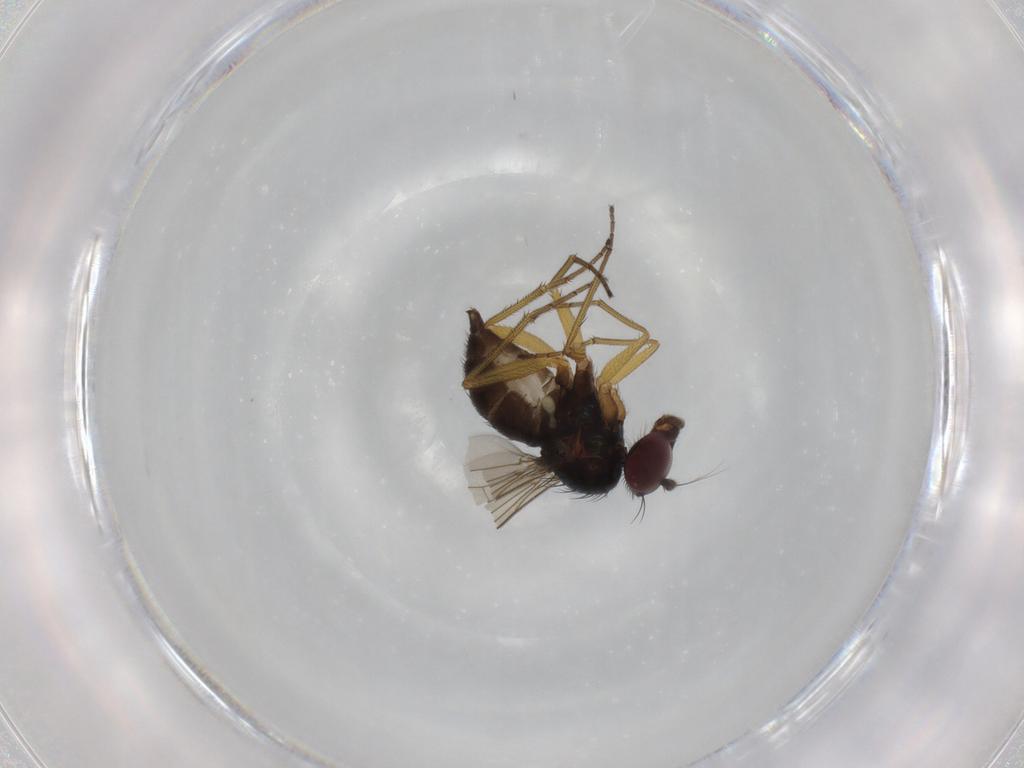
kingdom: Animalia
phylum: Arthropoda
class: Insecta
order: Diptera
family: Dolichopodidae
